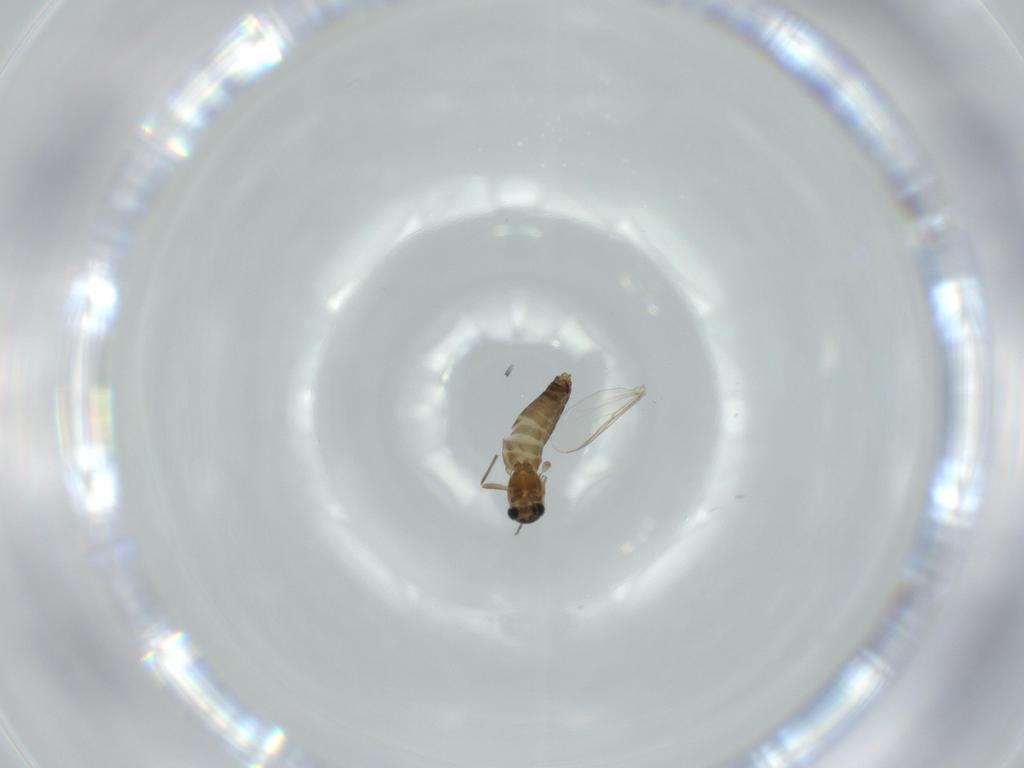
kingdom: Animalia
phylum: Arthropoda
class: Insecta
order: Diptera
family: Chironomidae
